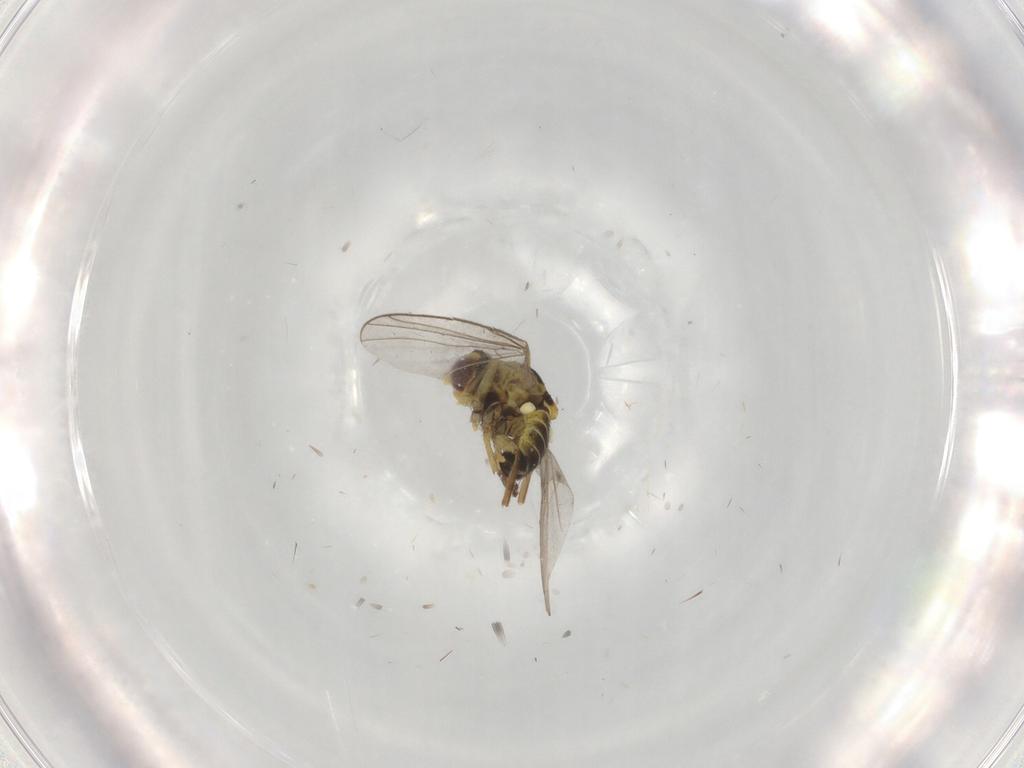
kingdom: Animalia
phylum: Arthropoda
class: Insecta
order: Diptera
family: Agromyzidae
